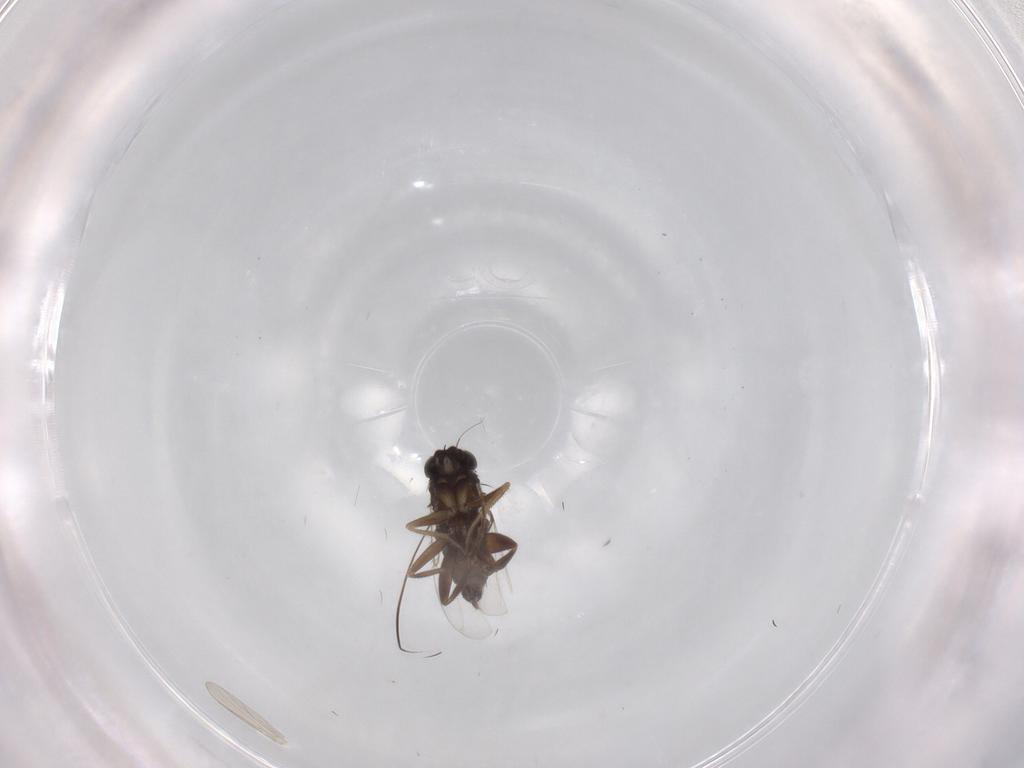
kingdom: Animalia
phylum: Arthropoda
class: Insecta
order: Diptera
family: Phoridae
